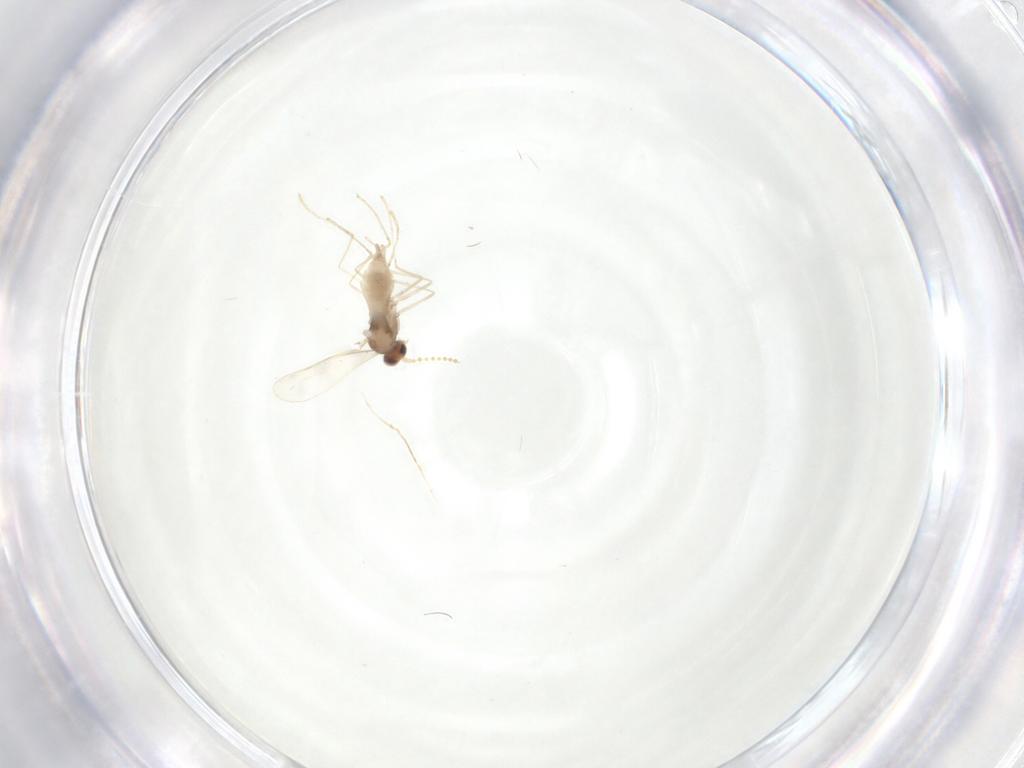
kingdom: Animalia
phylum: Arthropoda
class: Insecta
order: Diptera
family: Cecidomyiidae
